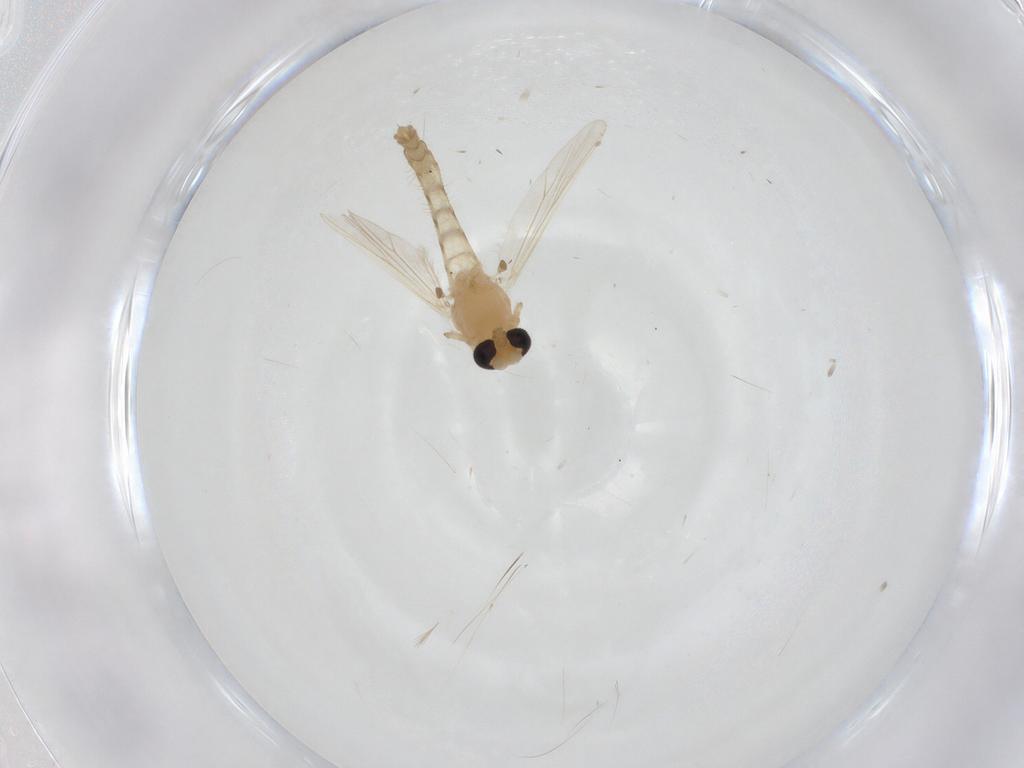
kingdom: Animalia
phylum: Arthropoda
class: Insecta
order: Diptera
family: Chironomidae
